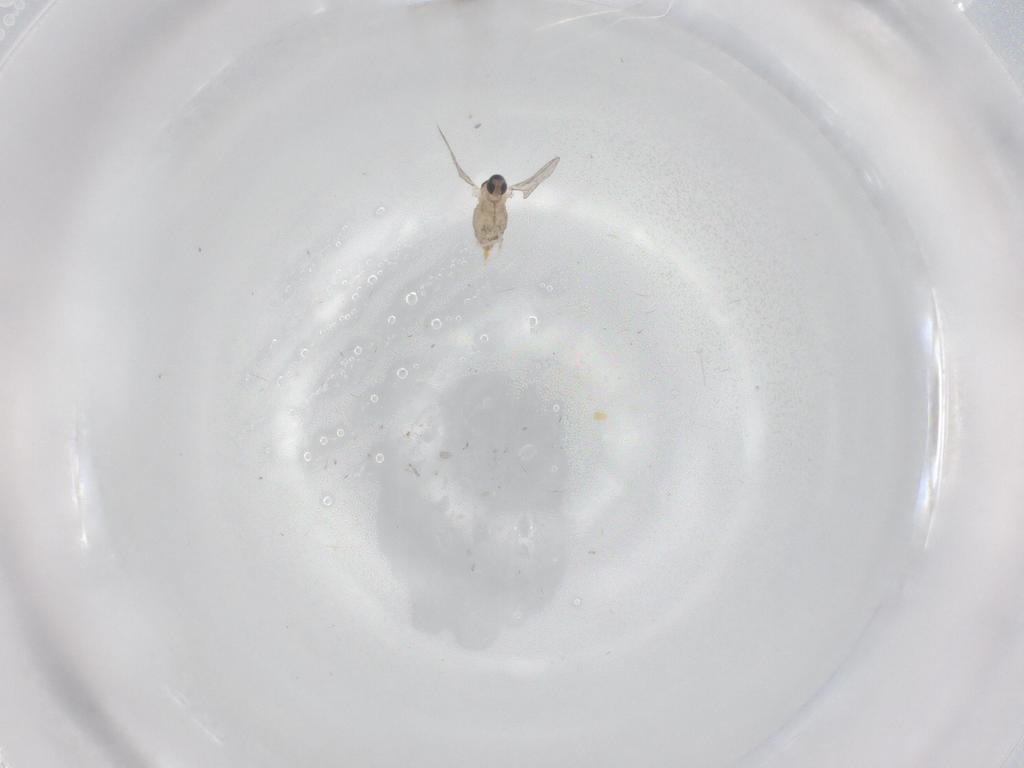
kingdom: Animalia
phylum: Arthropoda
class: Insecta
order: Diptera
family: Cecidomyiidae
